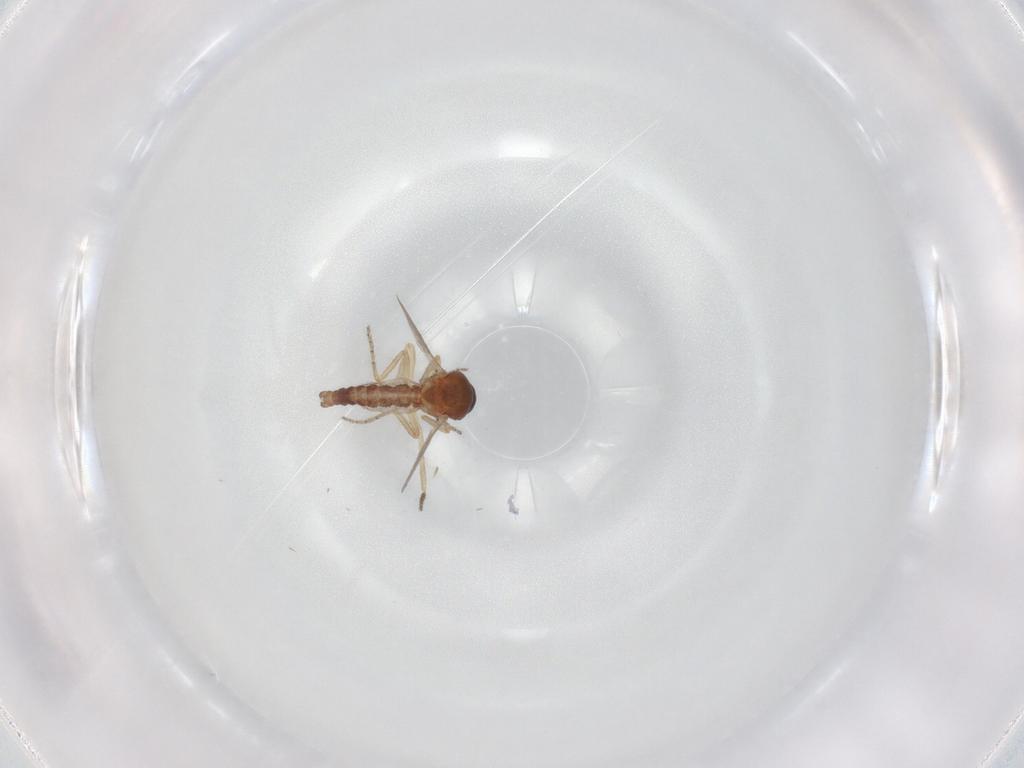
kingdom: Animalia
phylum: Arthropoda
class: Insecta
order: Diptera
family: Ceratopogonidae
